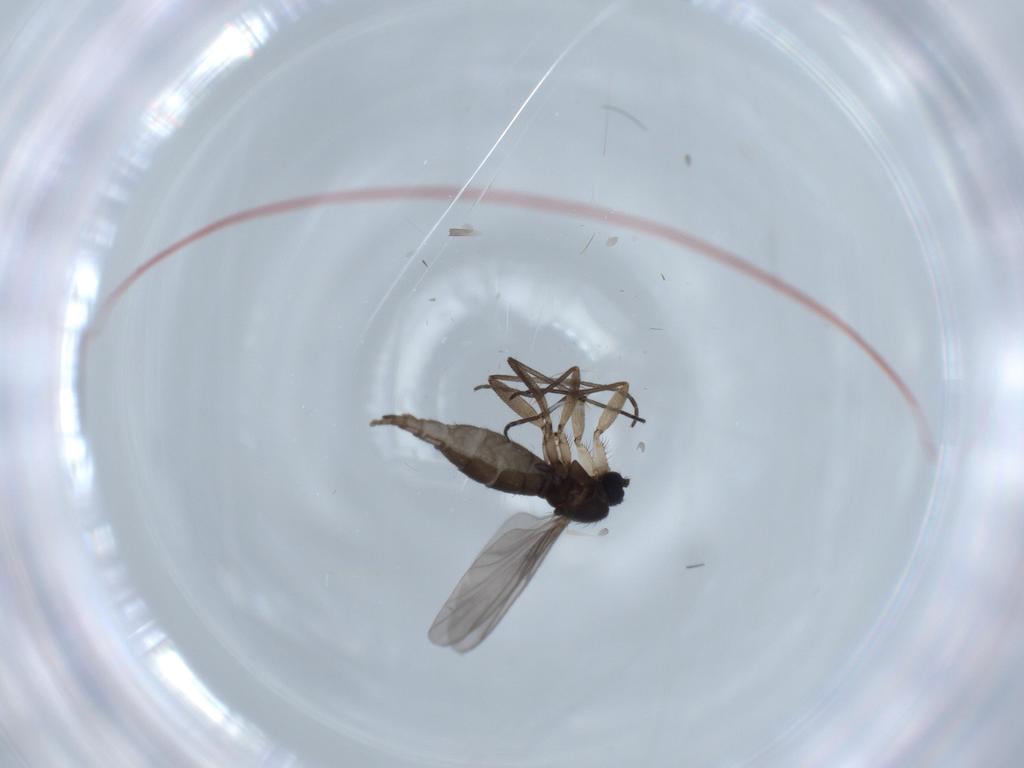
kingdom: Animalia
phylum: Arthropoda
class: Insecta
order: Diptera
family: Sciaridae
